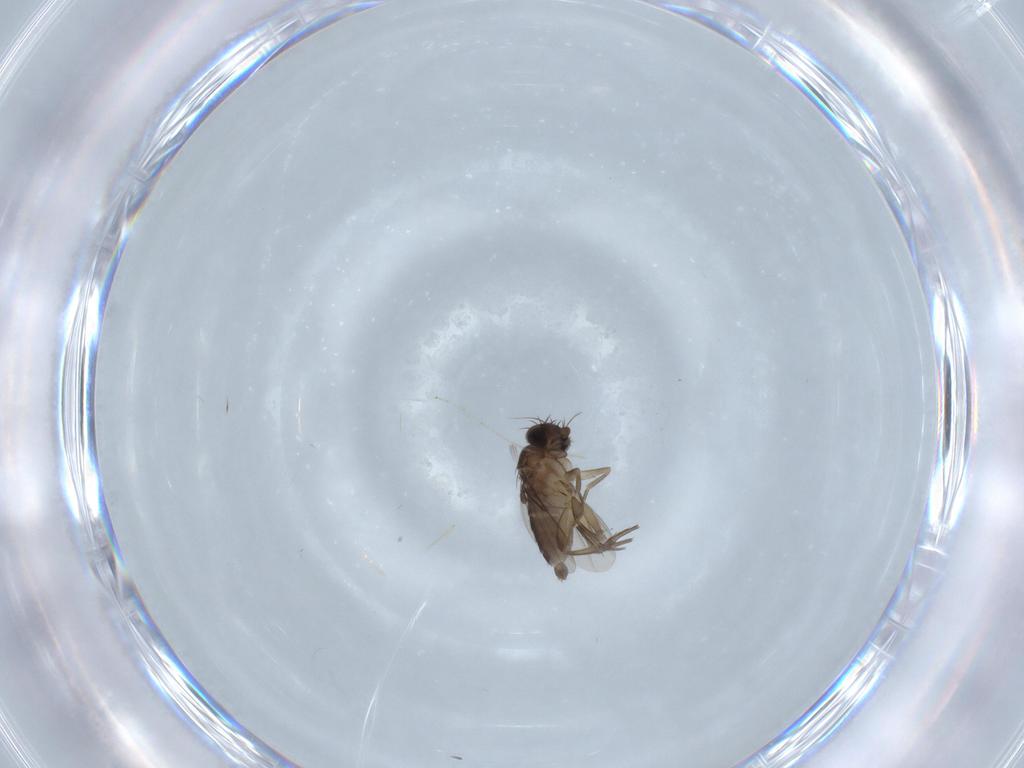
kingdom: Animalia
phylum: Arthropoda
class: Insecta
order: Diptera
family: Phoridae
